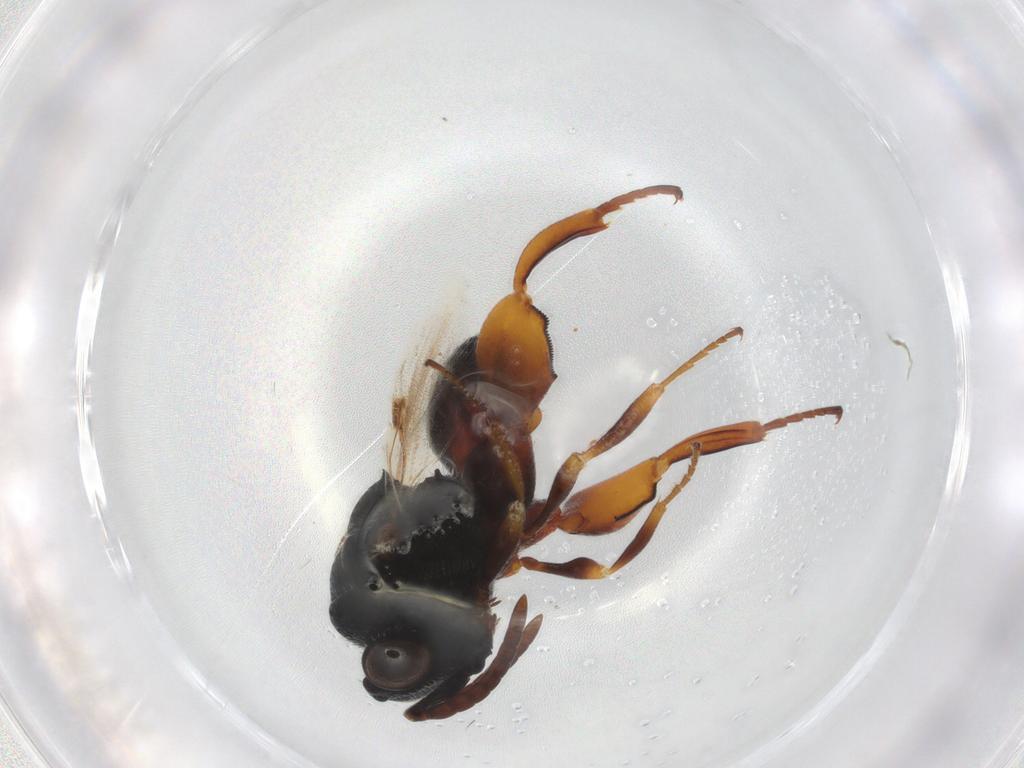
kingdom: Animalia
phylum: Arthropoda
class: Insecta
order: Hymenoptera
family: Chalcididae
